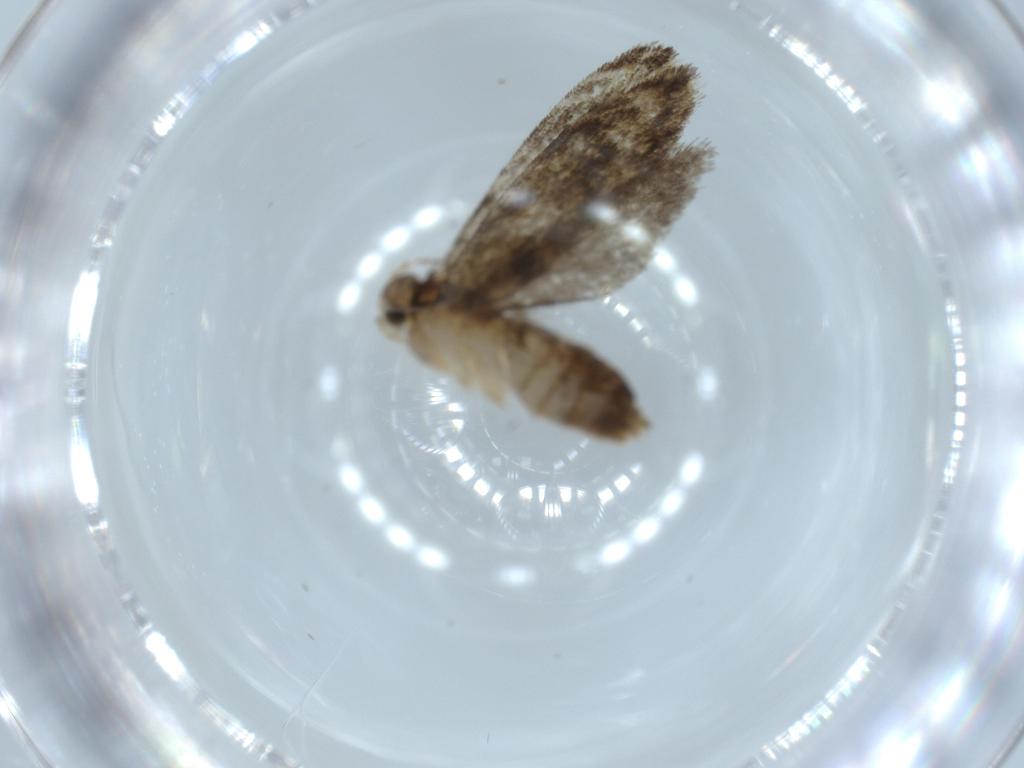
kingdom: Animalia
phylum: Arthropoda
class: Insecta
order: Lepidoptera
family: Tineidae
